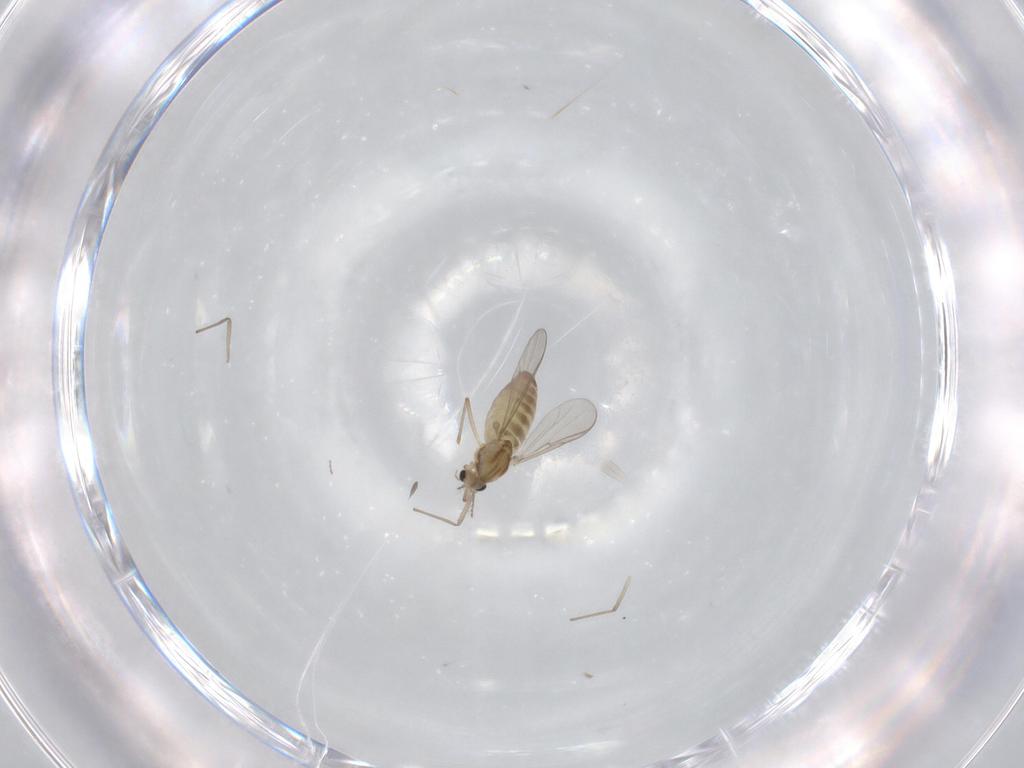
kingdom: Animalia
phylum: Arthropoda
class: Insecta
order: Diptera
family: Chironomidae
